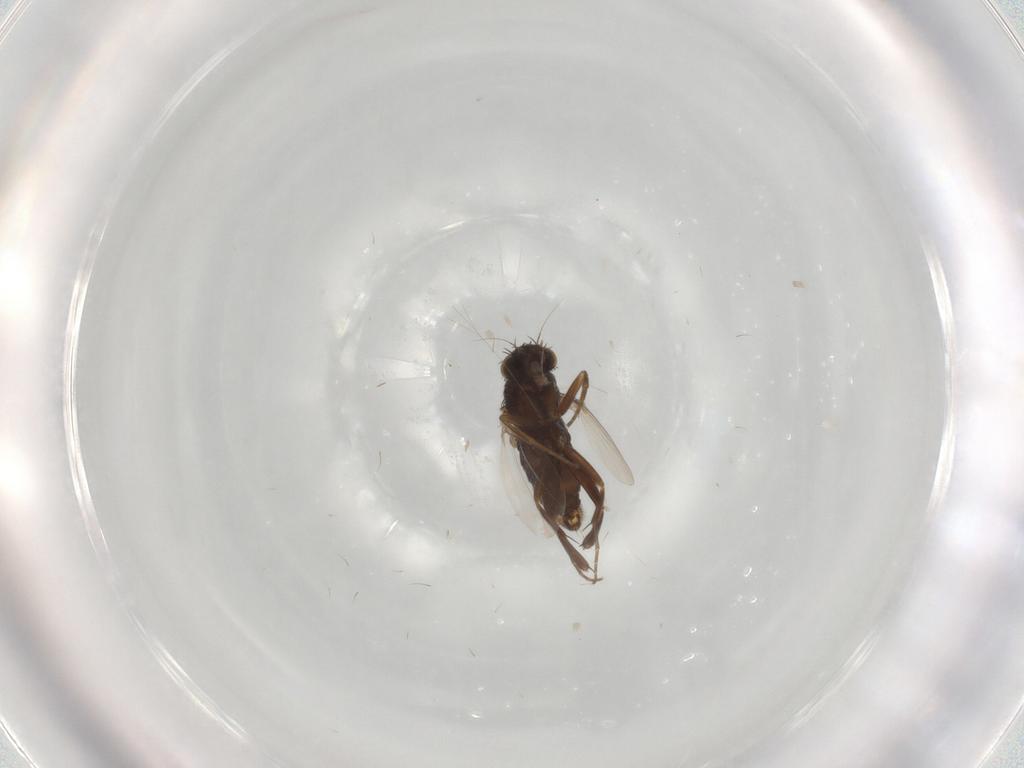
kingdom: Animalia
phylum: Arthropoda
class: Insecta
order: Diptera
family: Phoridae
